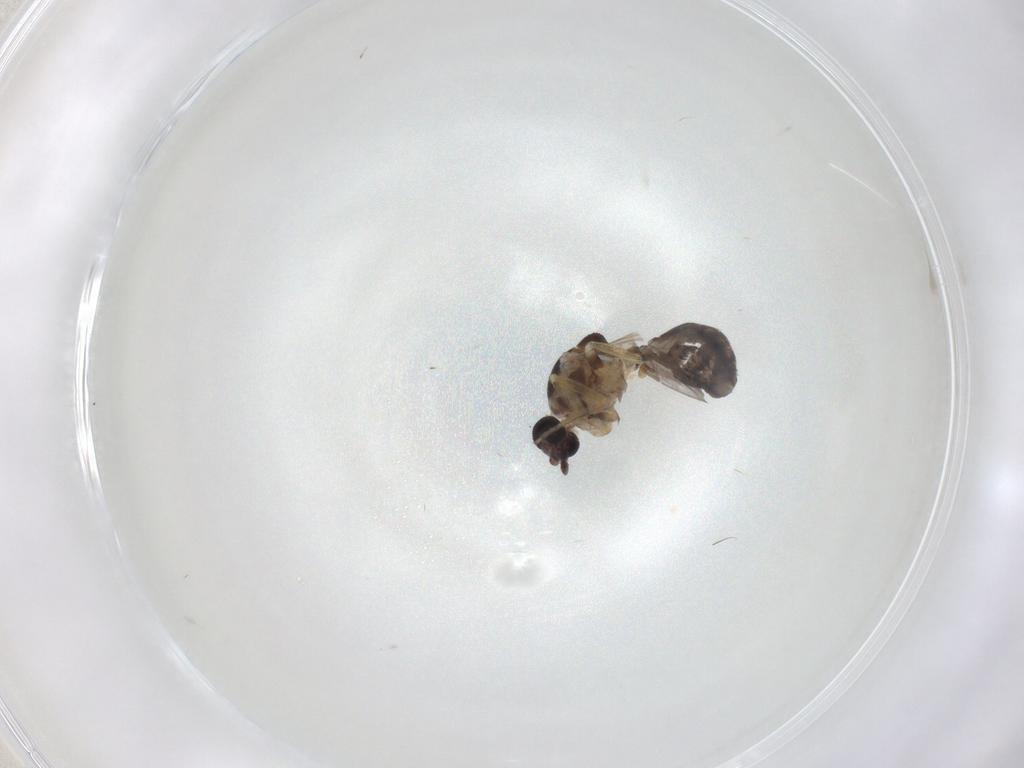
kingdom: Animalia
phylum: Arthropoda
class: Insecta
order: Diptera
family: Ceratopogonidae
